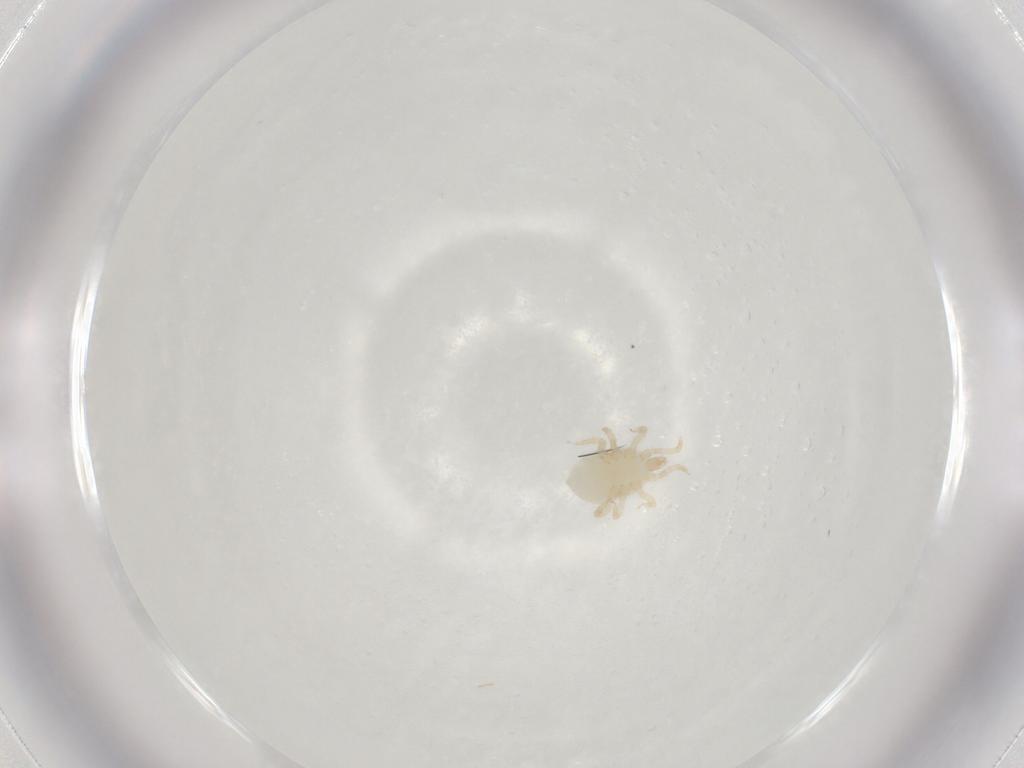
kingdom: Animalia
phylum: Arthropoda
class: Arachnida
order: Mesostigmata
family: Melicharidae
